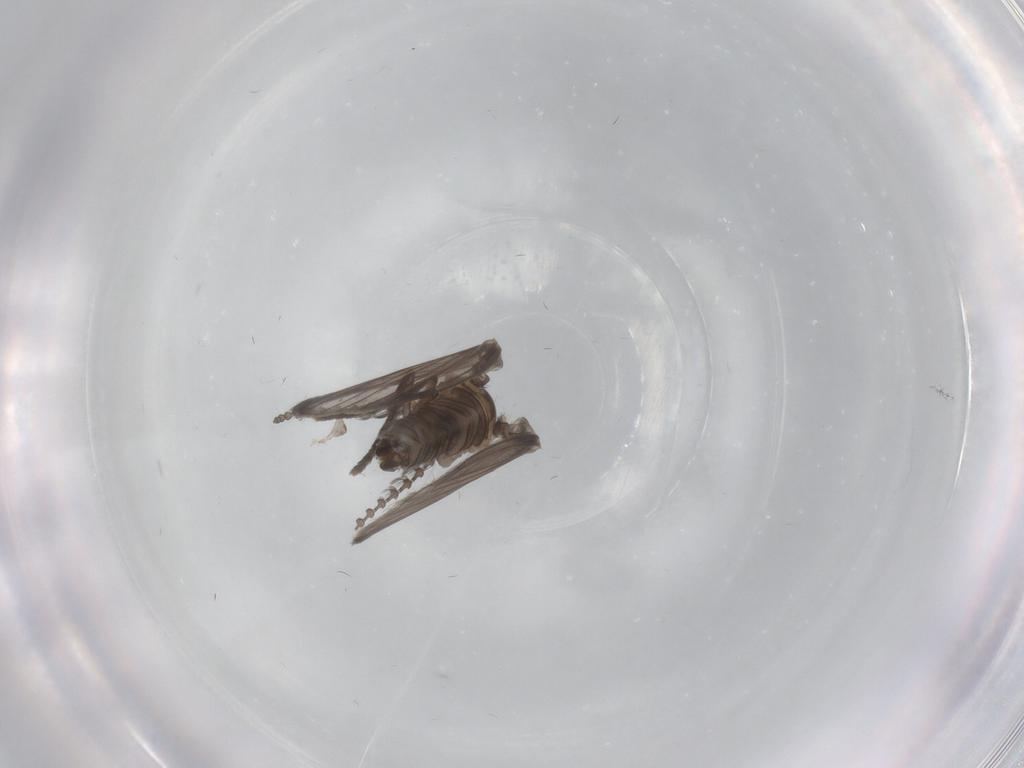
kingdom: Animalia
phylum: Arthropoda
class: Insecta
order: Diptera
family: Psychodidae
